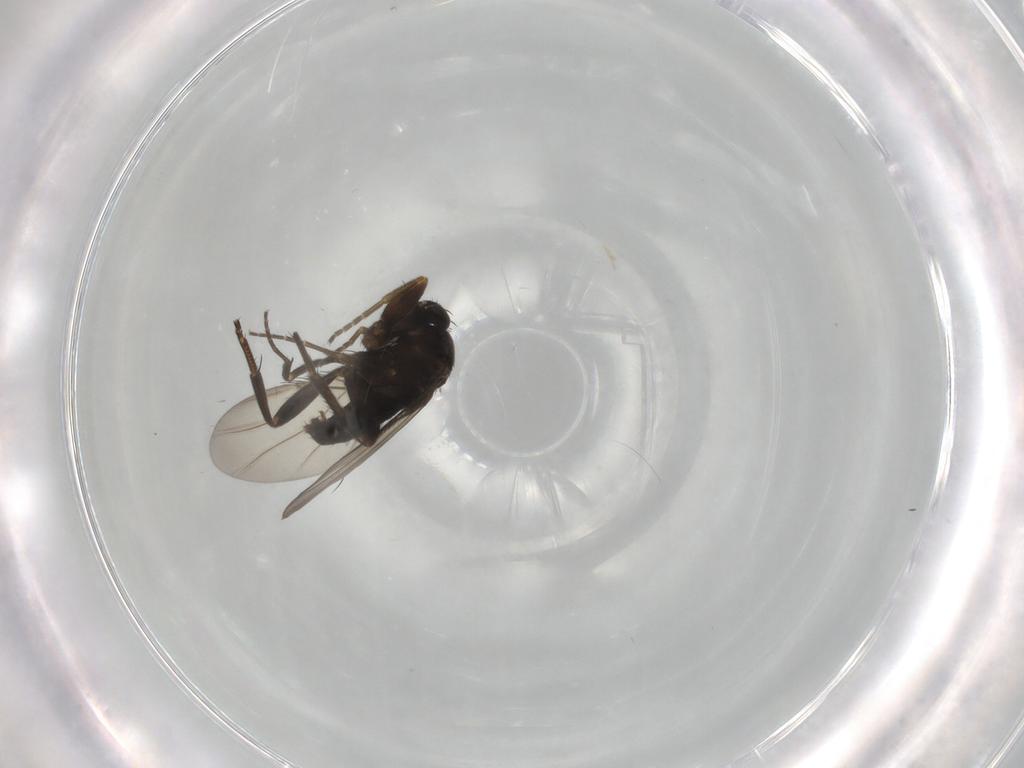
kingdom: Animalia
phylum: Arthropoda
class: Insecta
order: Diptera
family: Phoridae
